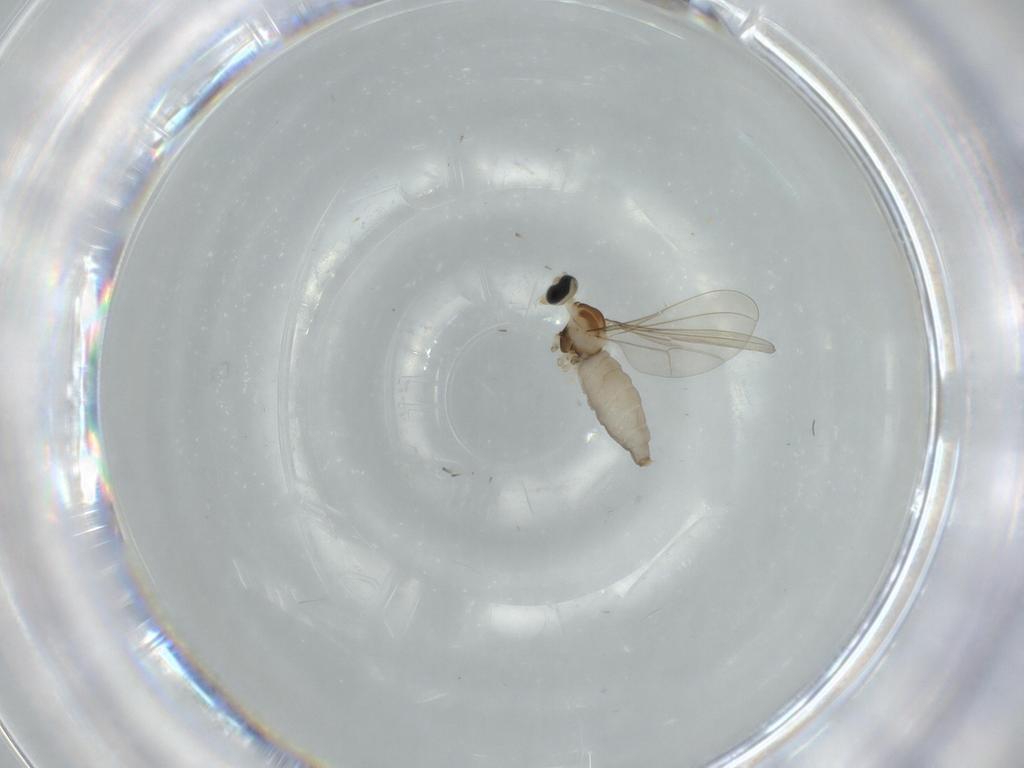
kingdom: Animalia
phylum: Arthropoda
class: Insecta
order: Diptera
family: Cecidomyiidae
